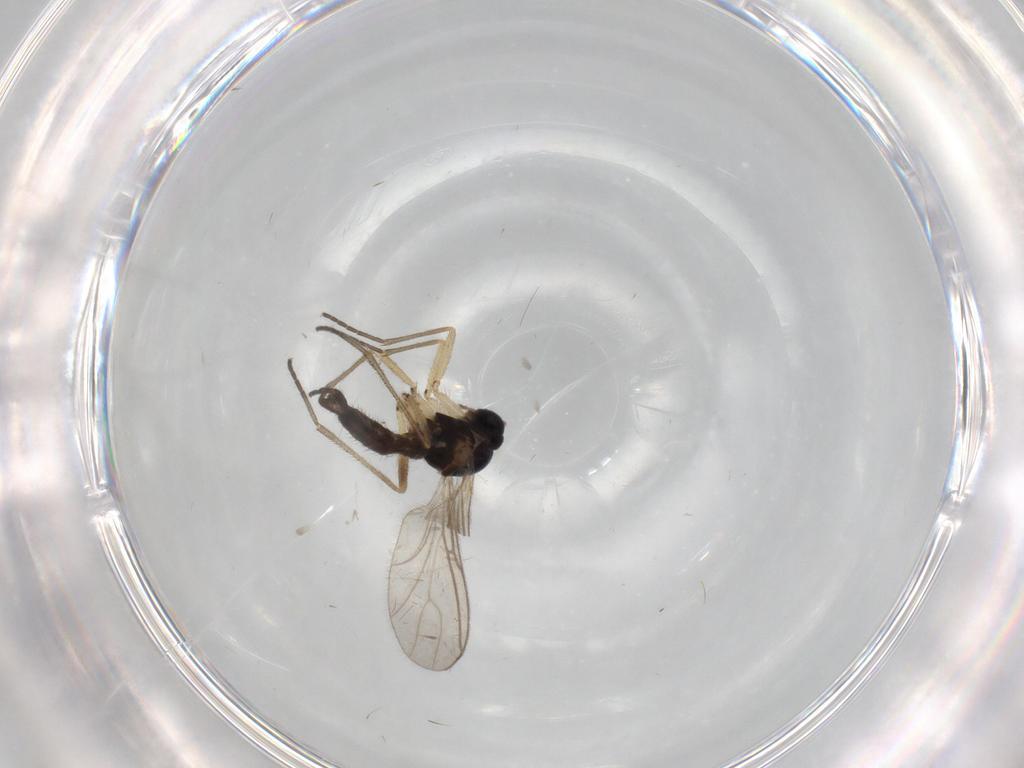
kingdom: Animalia
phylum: Arthropoda
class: Insecta
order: Diptera
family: Sciaridae
